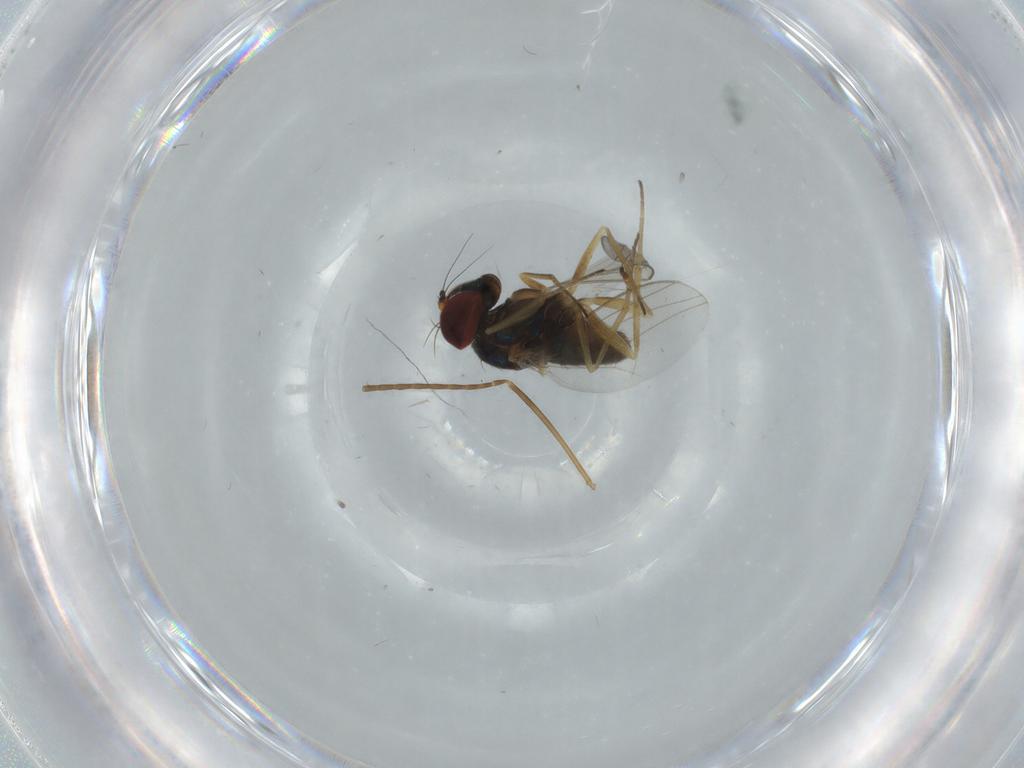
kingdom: Animalia
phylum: Arthropoda
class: Insecta
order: Diptera
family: Dolichopodidae
